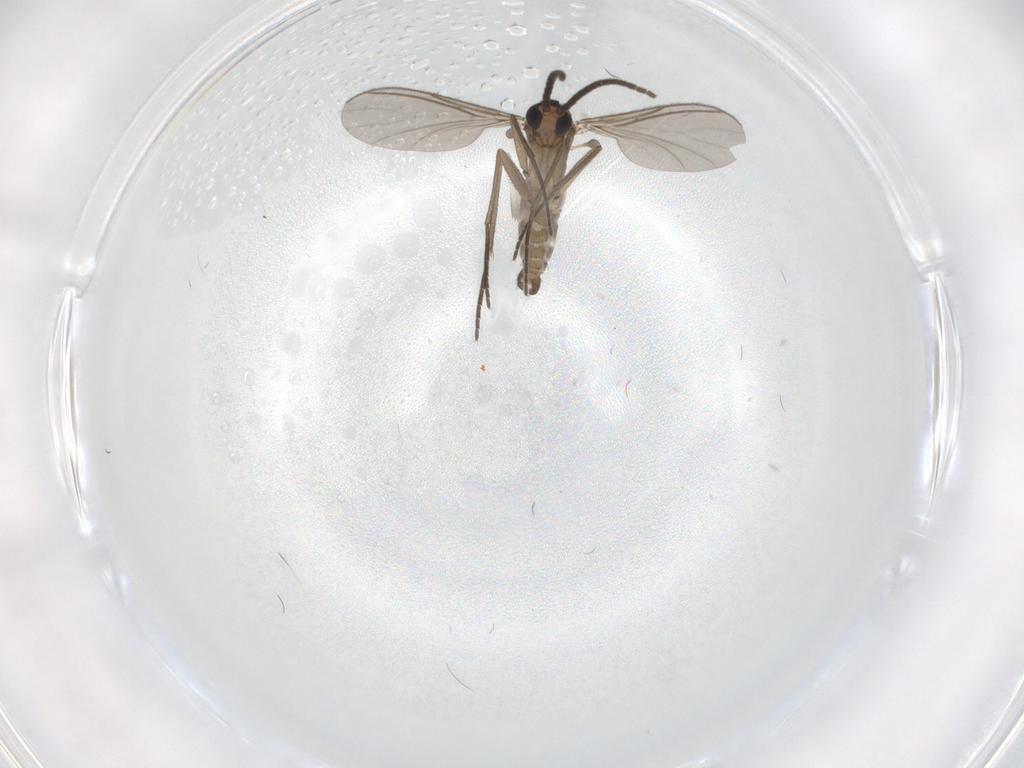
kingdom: Animalia
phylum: Arthropoda
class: Insecta
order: Diptera
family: Sciaridae
